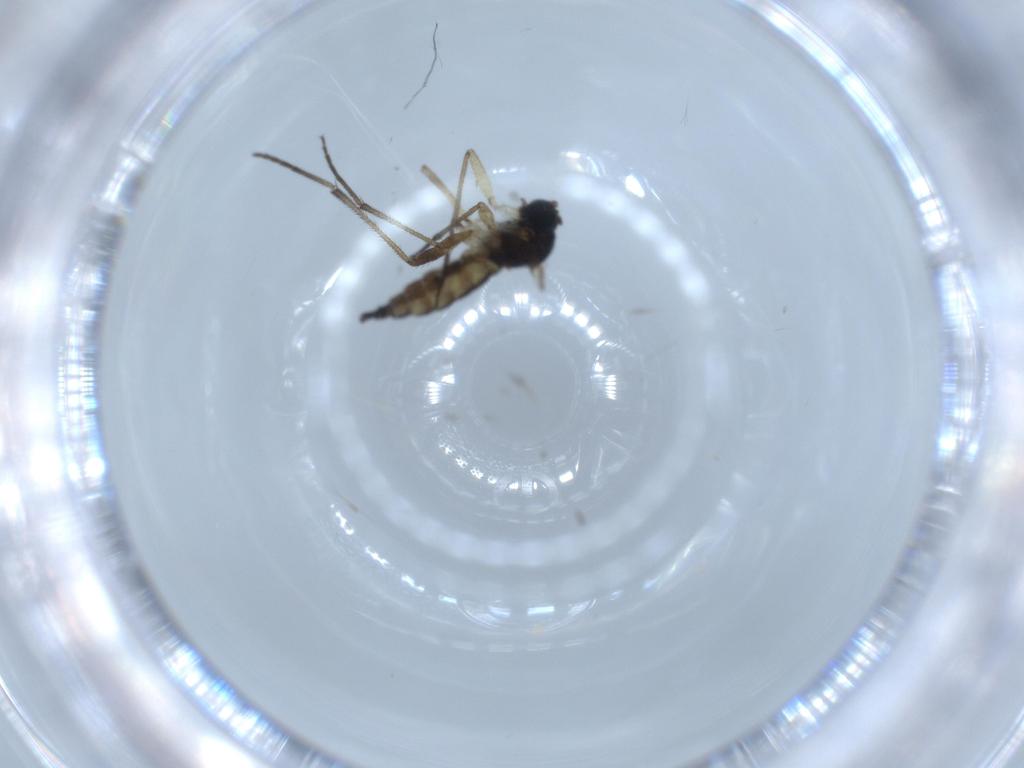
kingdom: Animalia
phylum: Arthropoda
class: Insecta
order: Diptera
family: Sciaridae
